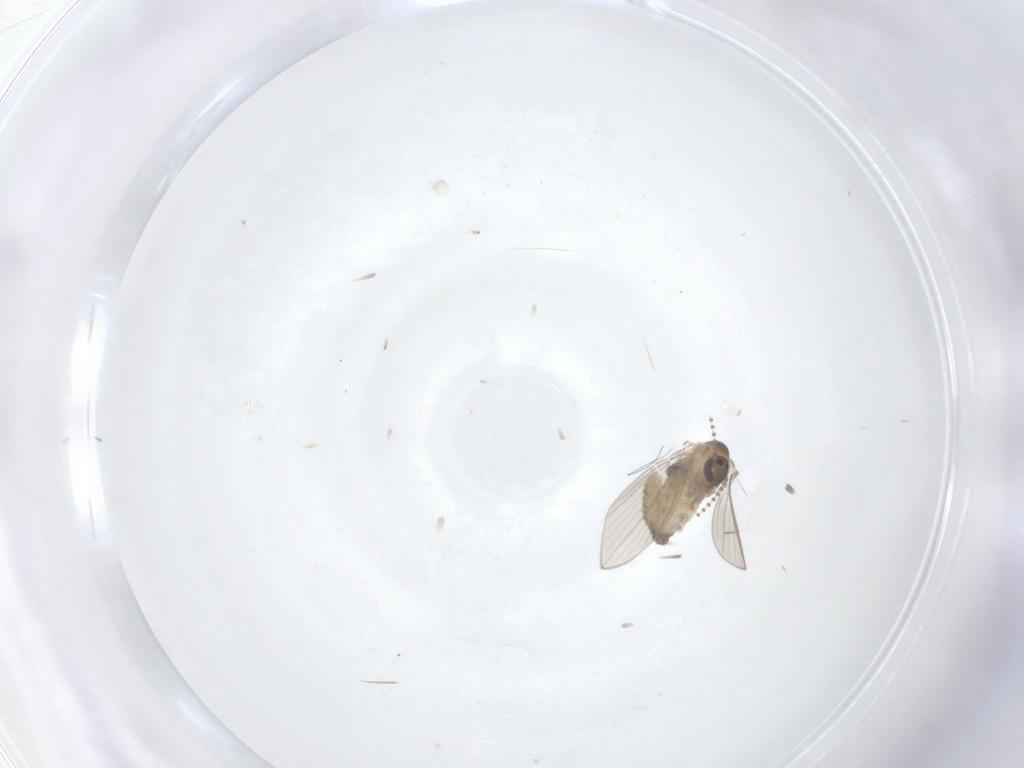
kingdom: Animalia
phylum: Arthropoda
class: Insecta
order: Diptera
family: Psychodidae
